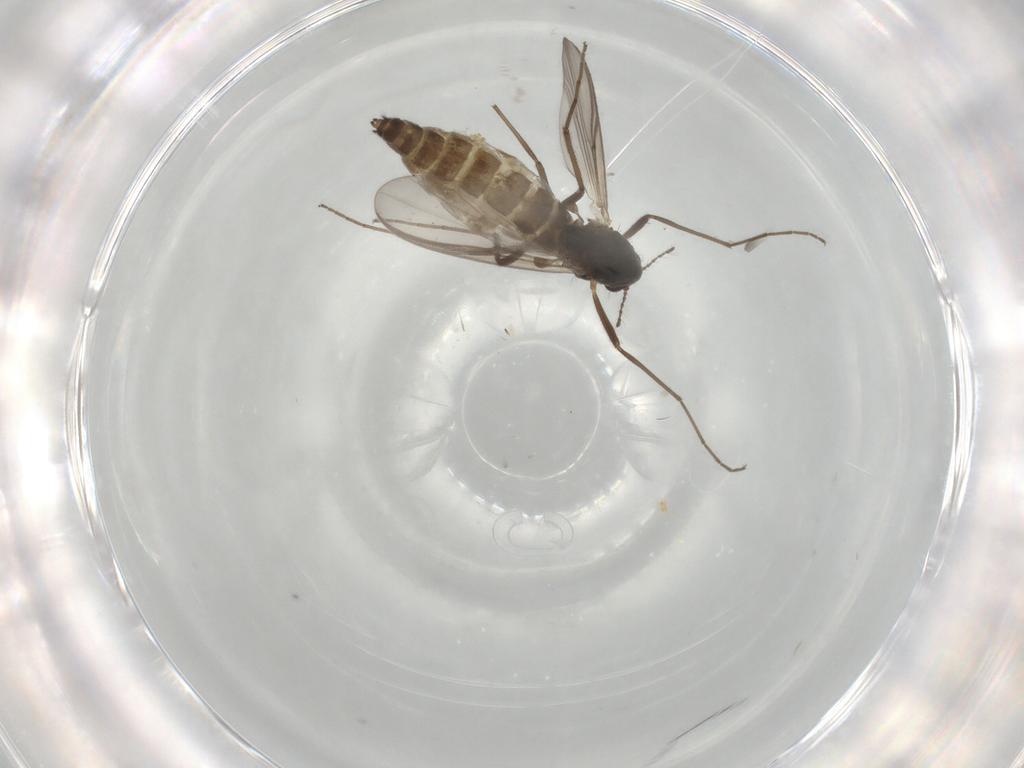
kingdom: Animalia
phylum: Arthropoda
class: Insecta
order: Diptera
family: Chironomidae
